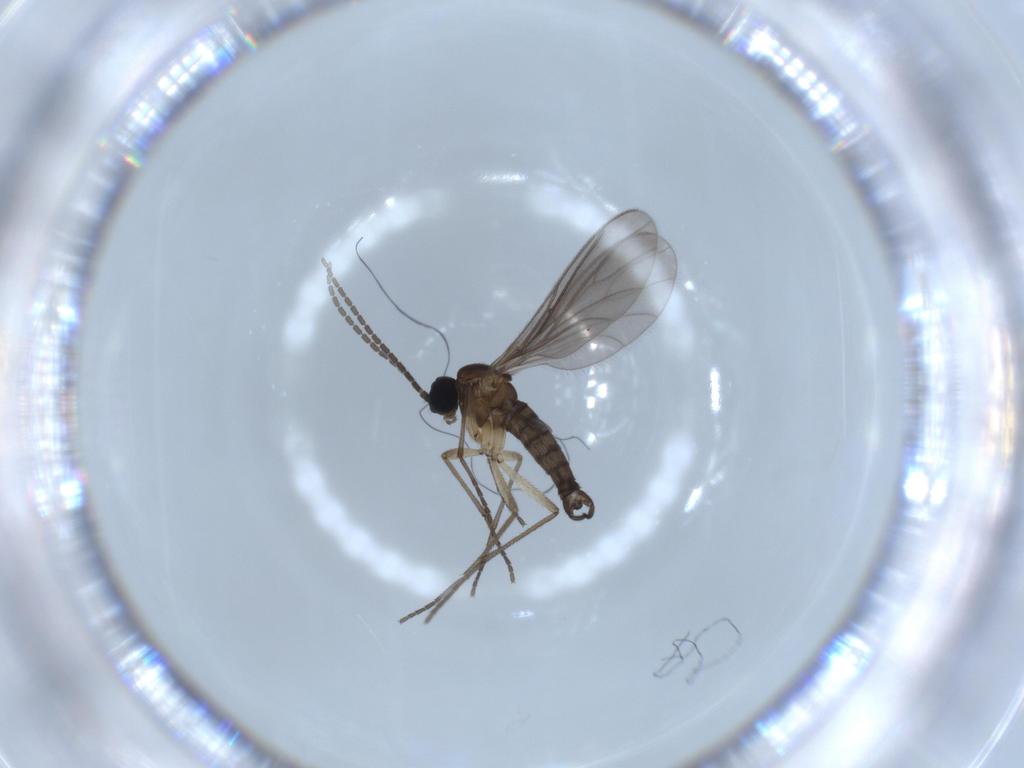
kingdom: Animalia
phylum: Arthropoda
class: Insecta
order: Diptera
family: Sciaridae
